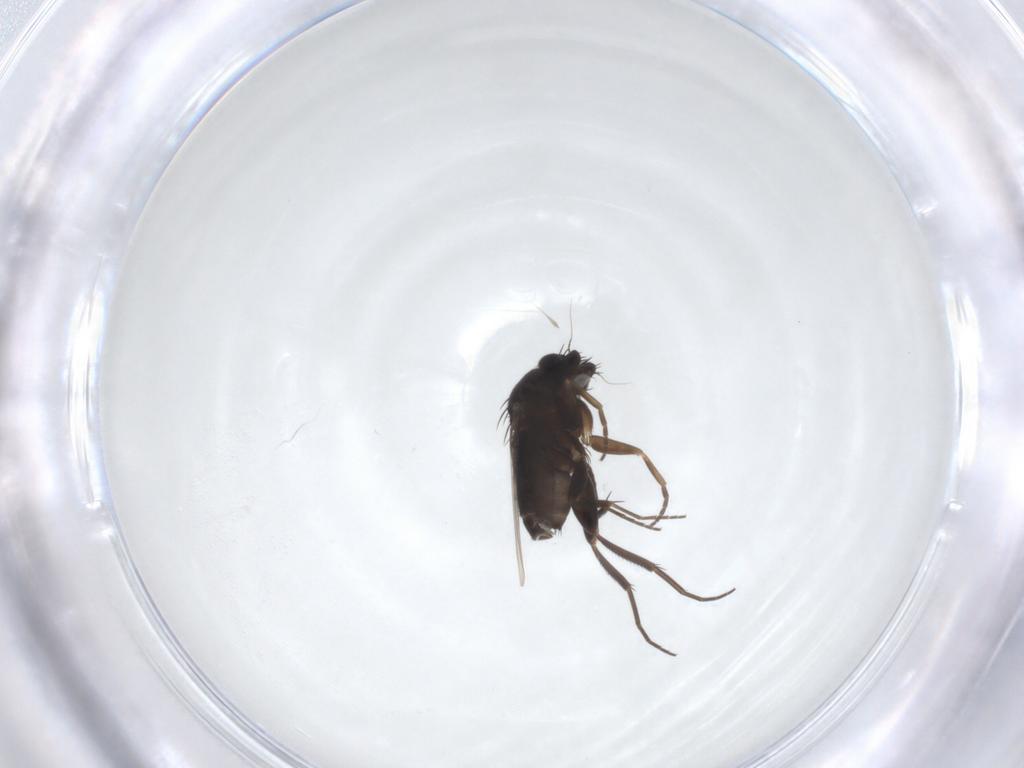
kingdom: Animalia
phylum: Arthropoda
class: Insecta
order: Diptera
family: Phoridae
